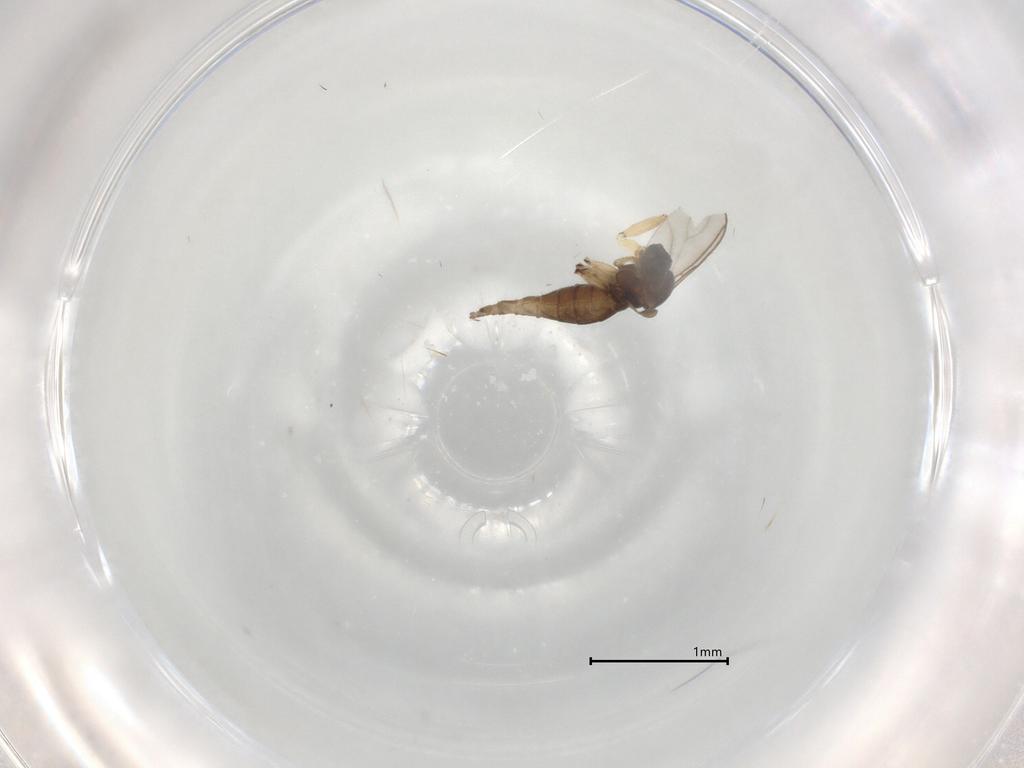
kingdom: Animalia
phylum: Arthropoda
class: Insecta
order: Diptera
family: Sciaridae
